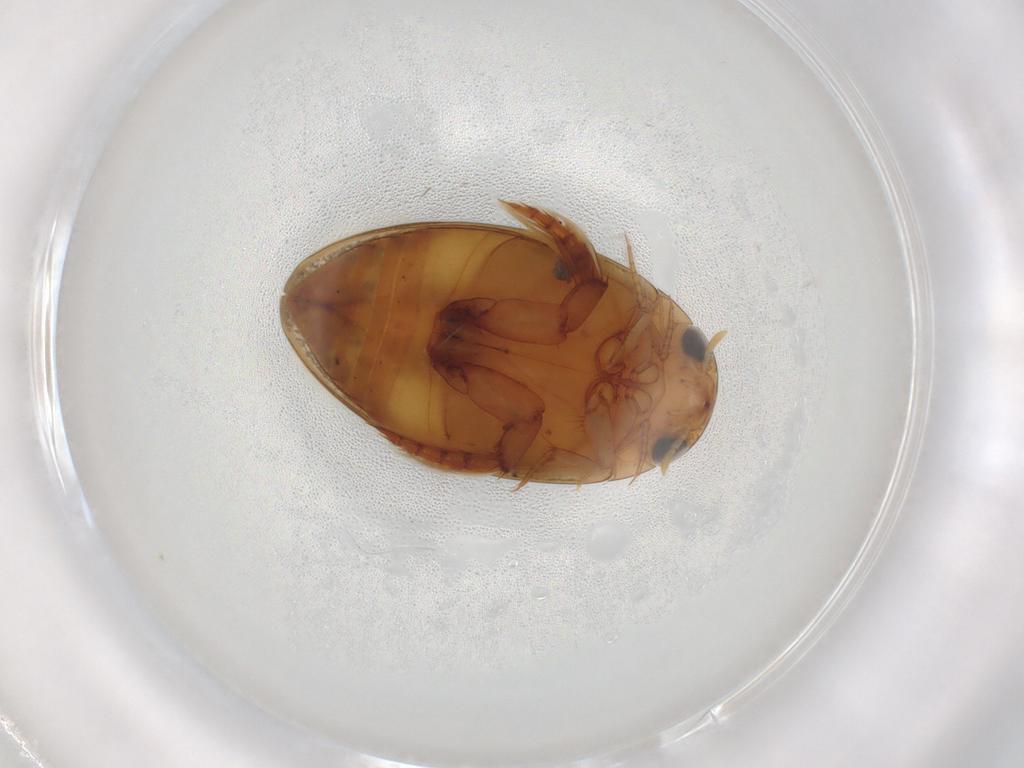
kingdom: Animalia
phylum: Arthropoda
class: Insecta
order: Coleoptera
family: Dytiscidae
